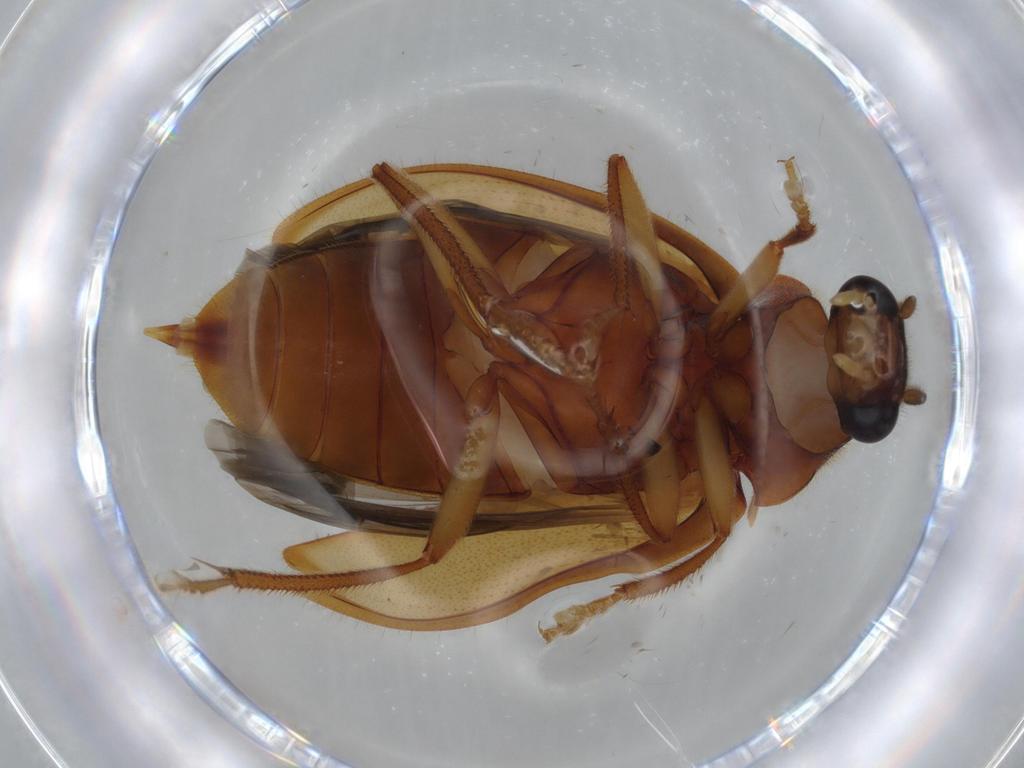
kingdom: Animalia
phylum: Arthropoda
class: Insecta
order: Coleoptera
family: Ptilodactylidae
